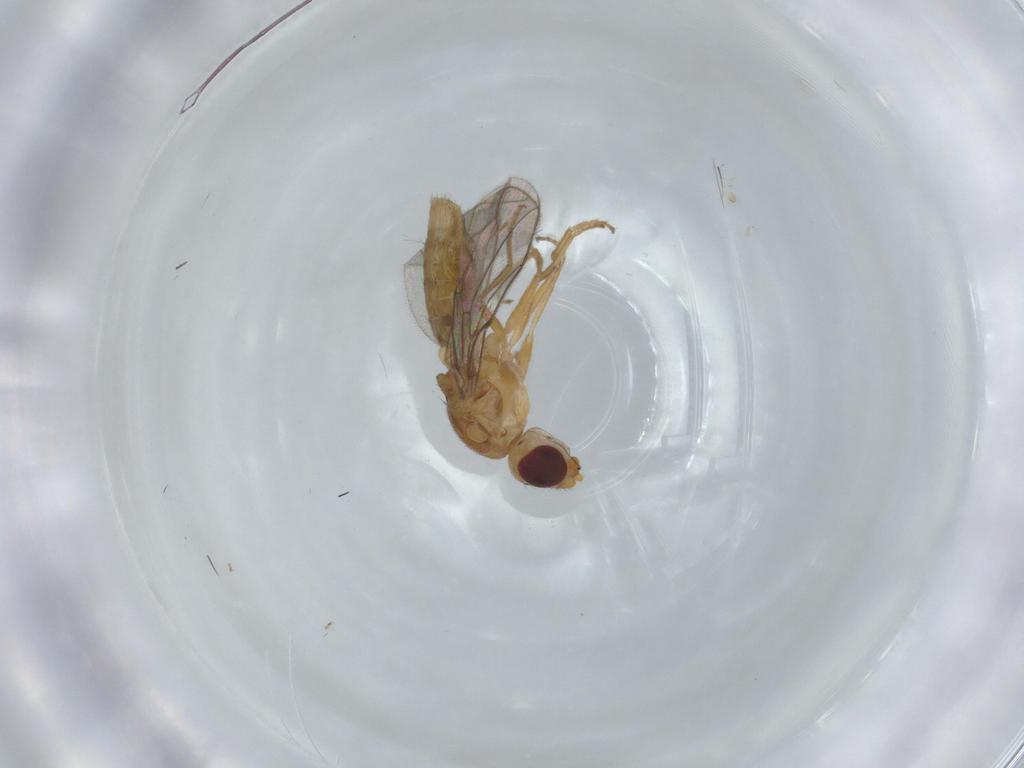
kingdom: Animalia
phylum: Arthropoda
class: Insecta
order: Diptera
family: Chloropidae
